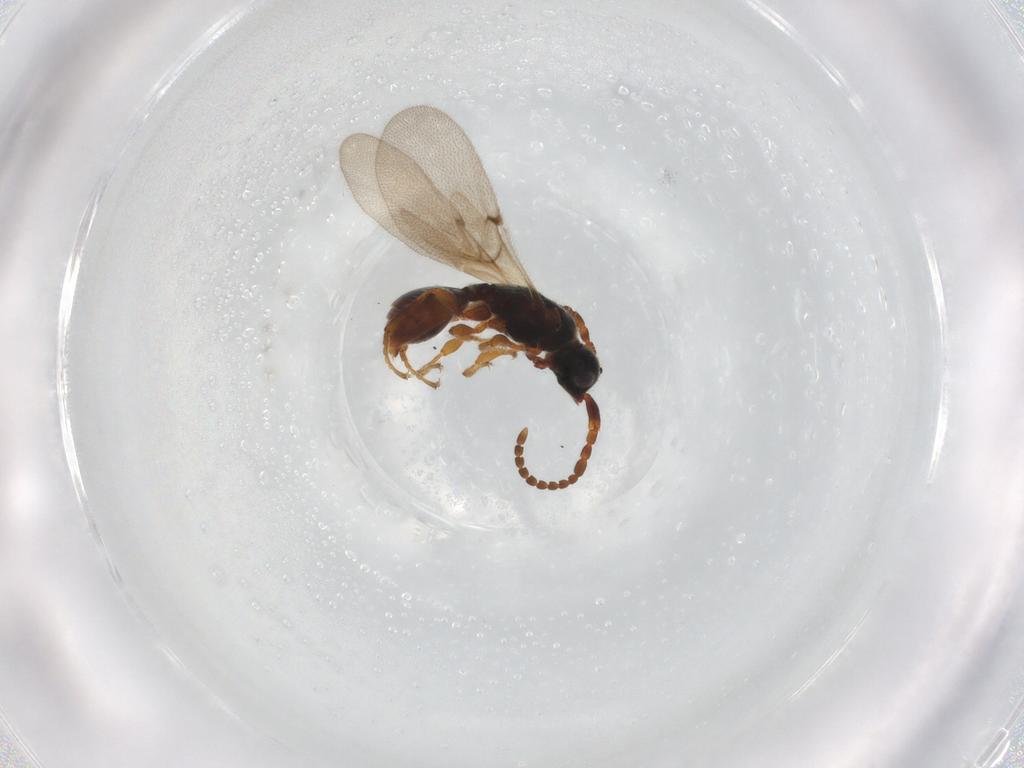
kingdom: Animalia
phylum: Arthropoda
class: Insecta
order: Hymenoptera
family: Diapriidae
